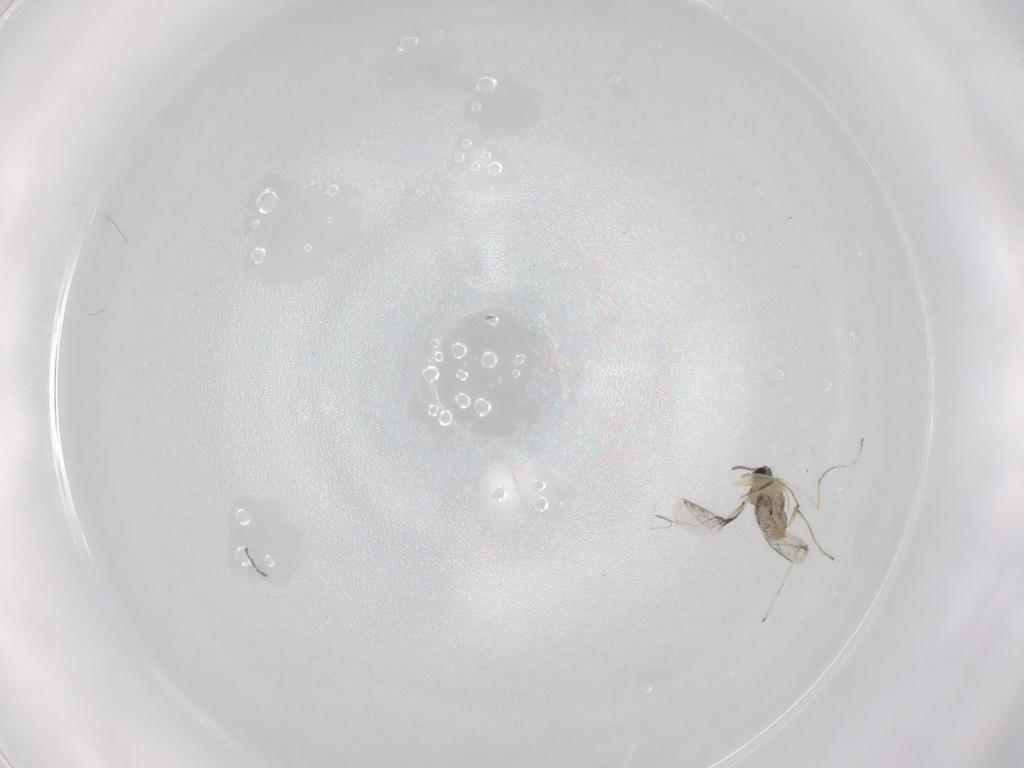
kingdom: Animalia
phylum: Arthropoda
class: Insecta
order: Diptera
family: Cecidomyiidae
